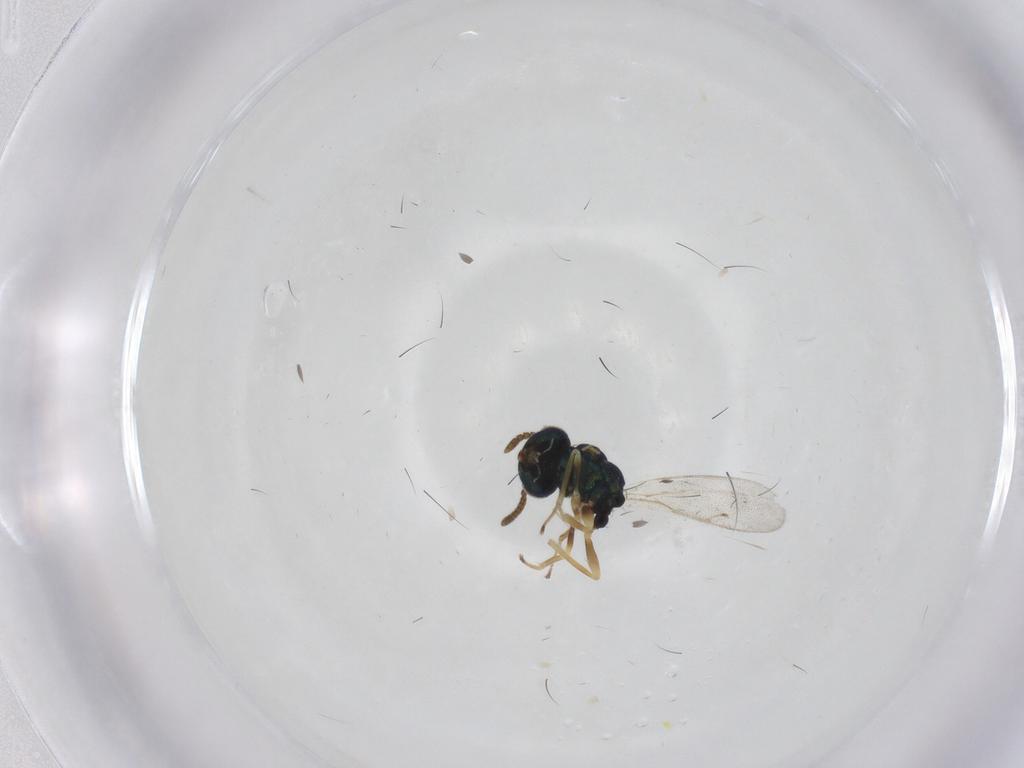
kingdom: Animalia
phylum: Arthropoda
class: Insecta
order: Hymenoptera
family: Pteromalidae
